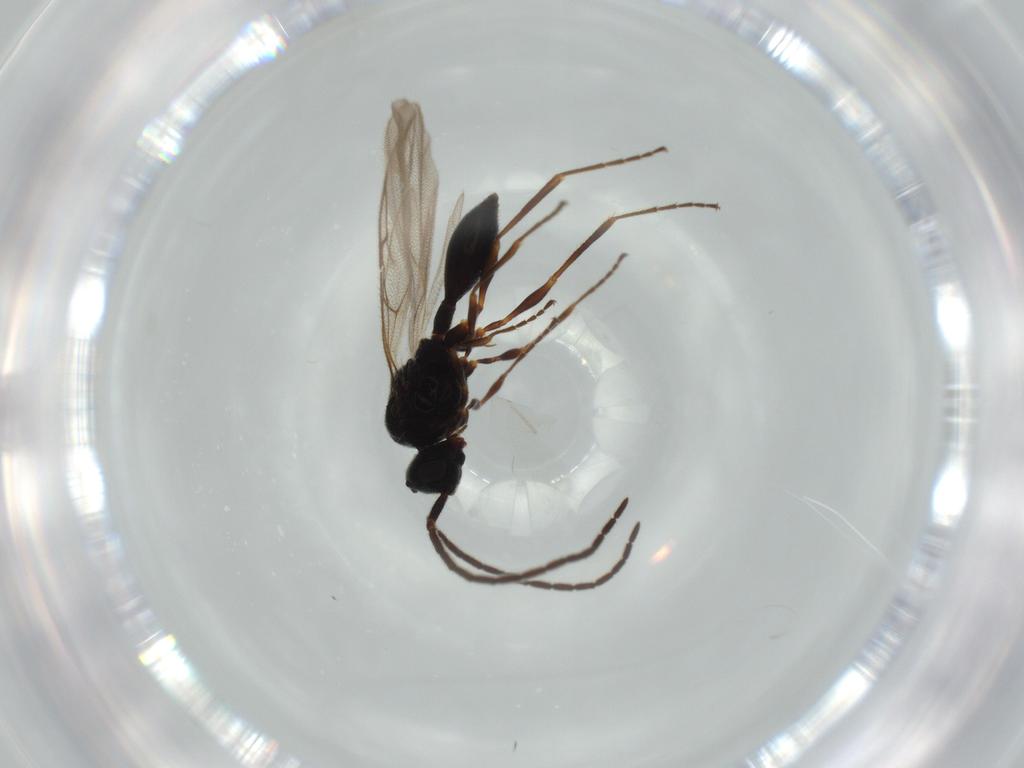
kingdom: Animalia
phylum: Arthropoda
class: Insecta
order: Hymenoptera
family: Ichneumonidae
